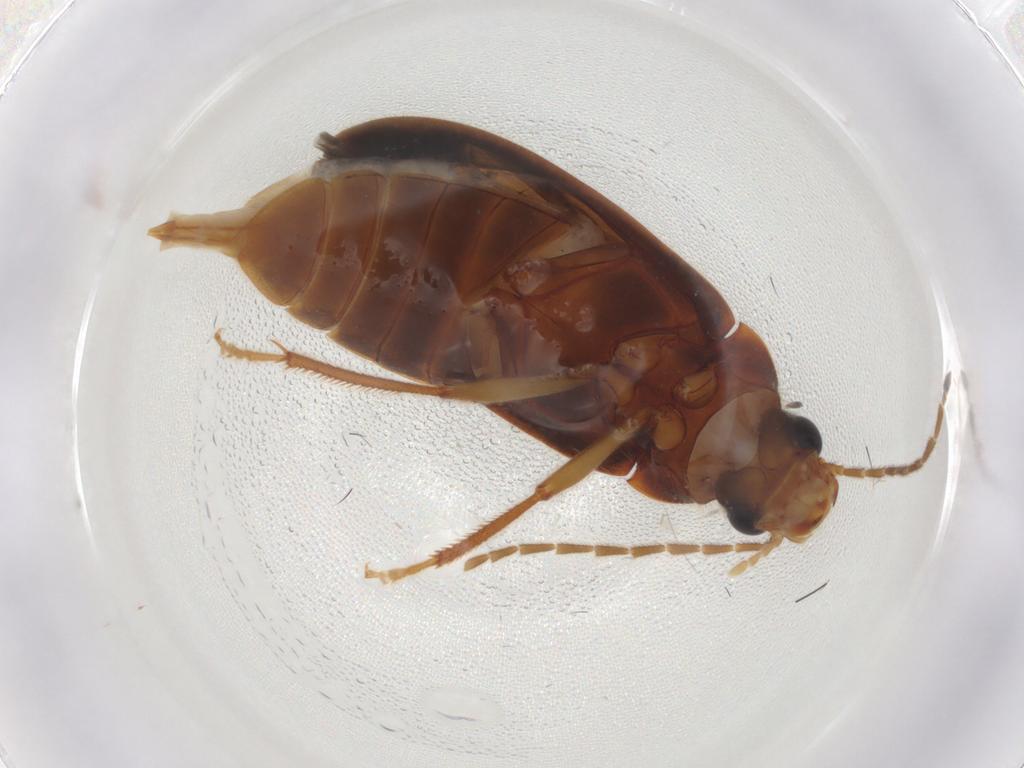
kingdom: Animalia
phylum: Arthropoda
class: Insecta
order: Coleoptera
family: Ptilodactylidae
